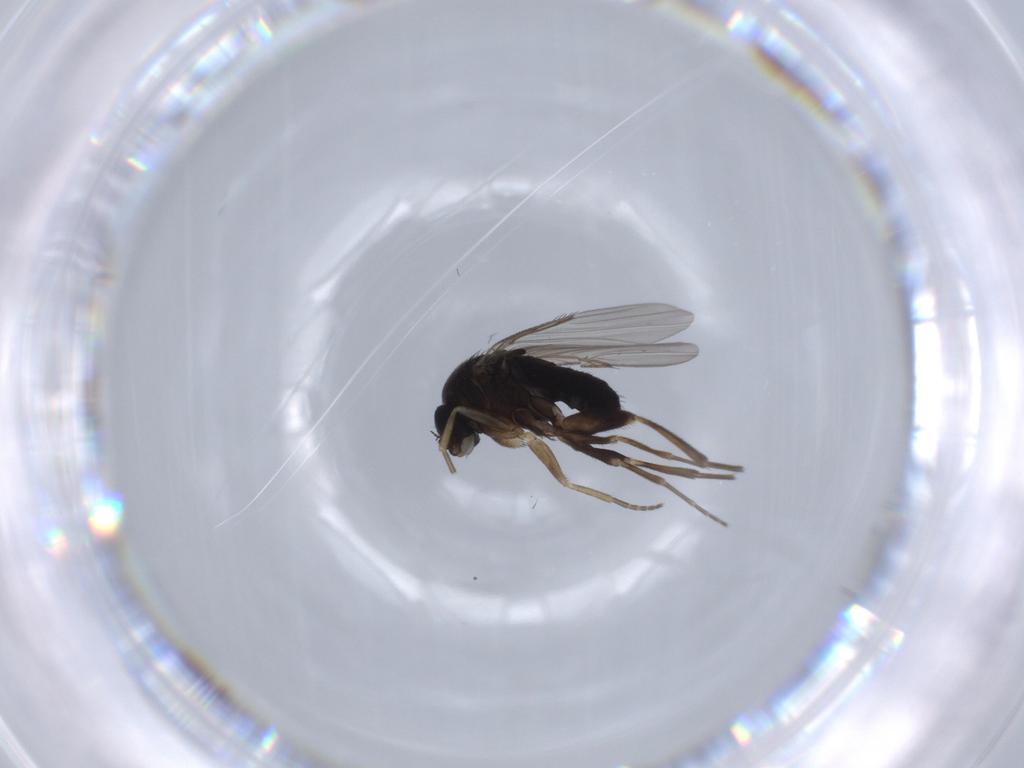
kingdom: Animalia
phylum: Arthropoda
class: Insecta
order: Diptera
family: Phoridae
